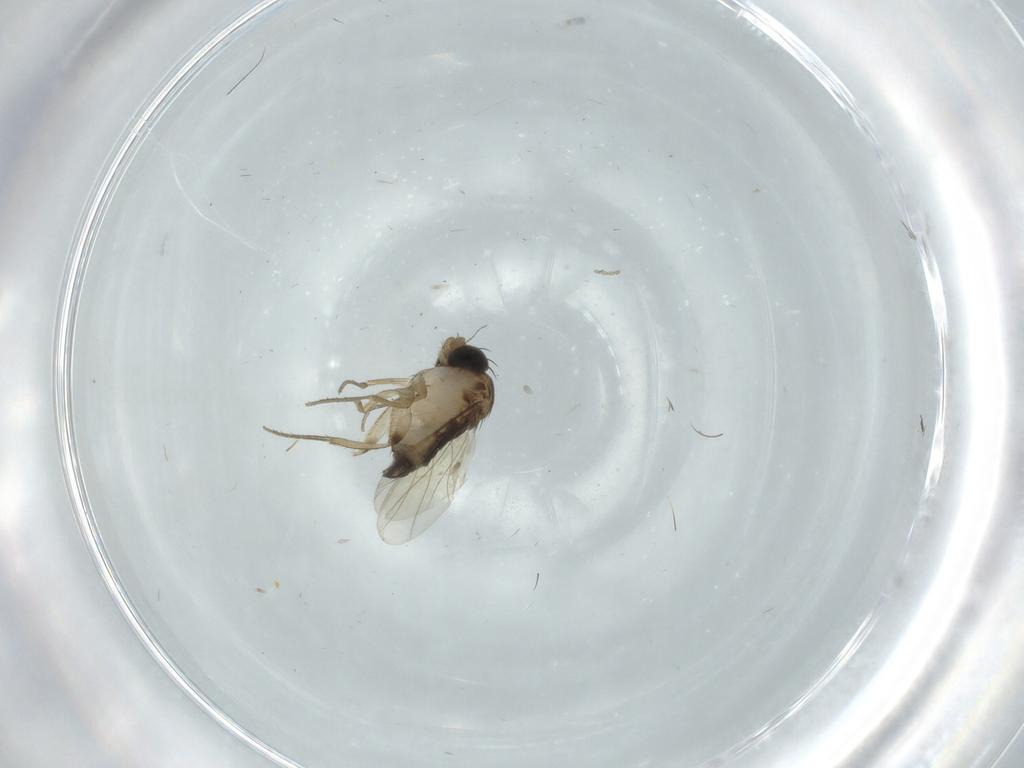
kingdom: Animalia
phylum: Arthropoda
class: Insecta
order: Diptera
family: Phoridae
